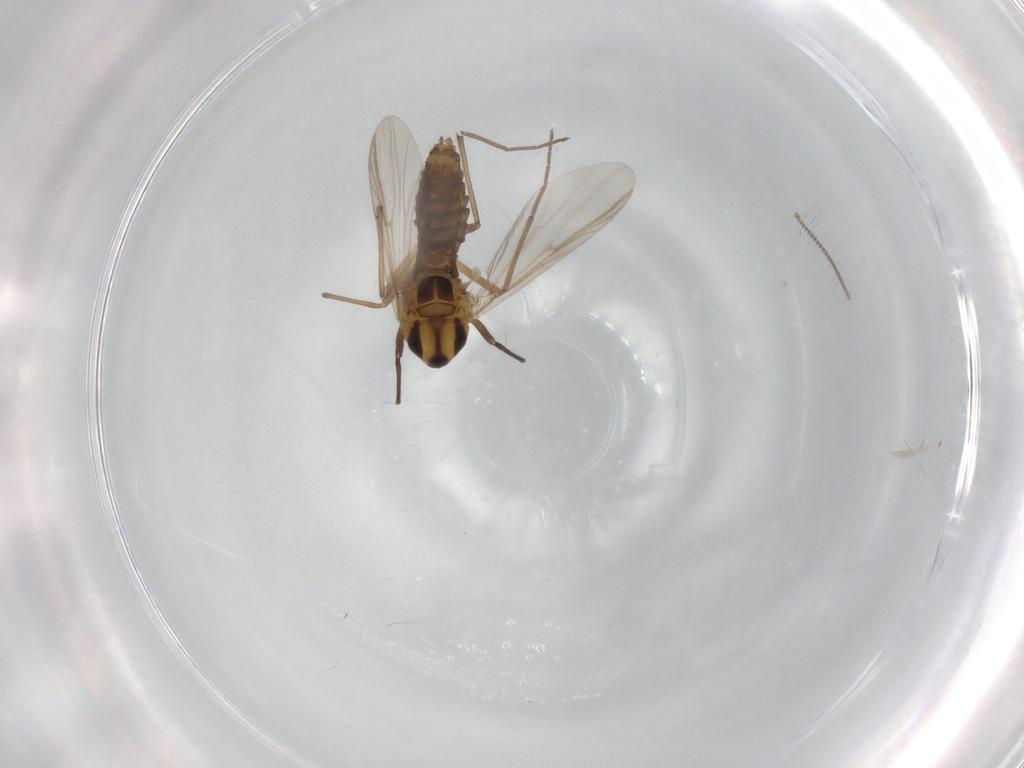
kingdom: Animalia
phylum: Arthropoda
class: Insecta
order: Diptera
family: Chironomidae
